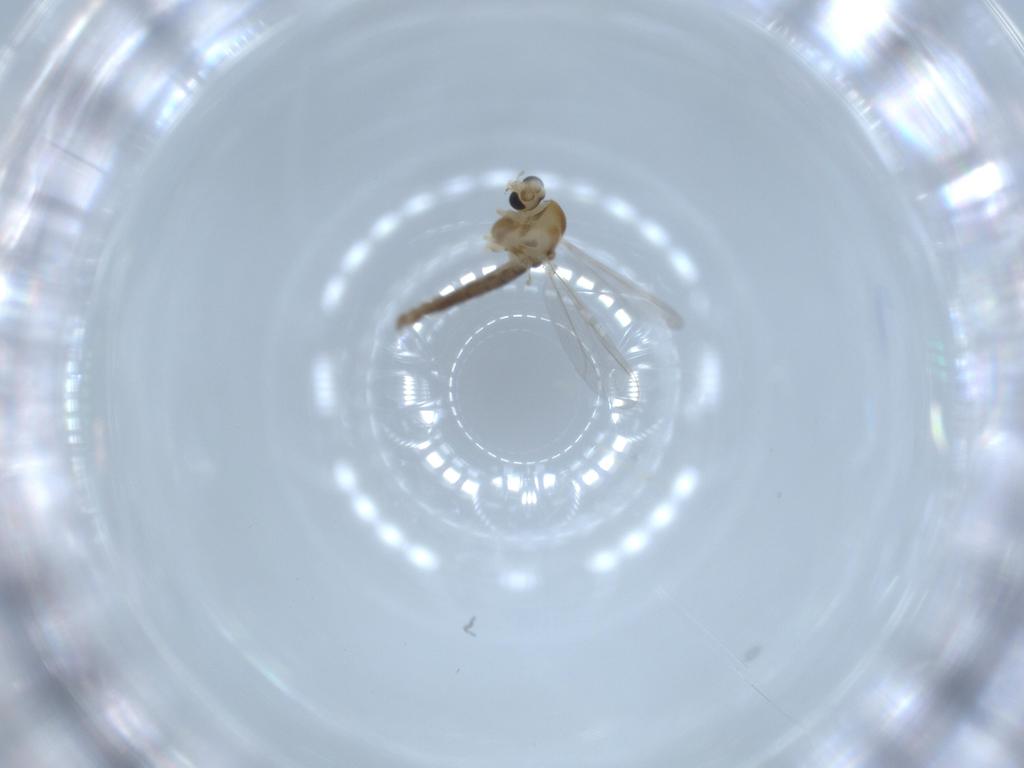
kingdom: Animalia
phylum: Arthropoda
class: Insecta
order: Diptera
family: Chironomidae
